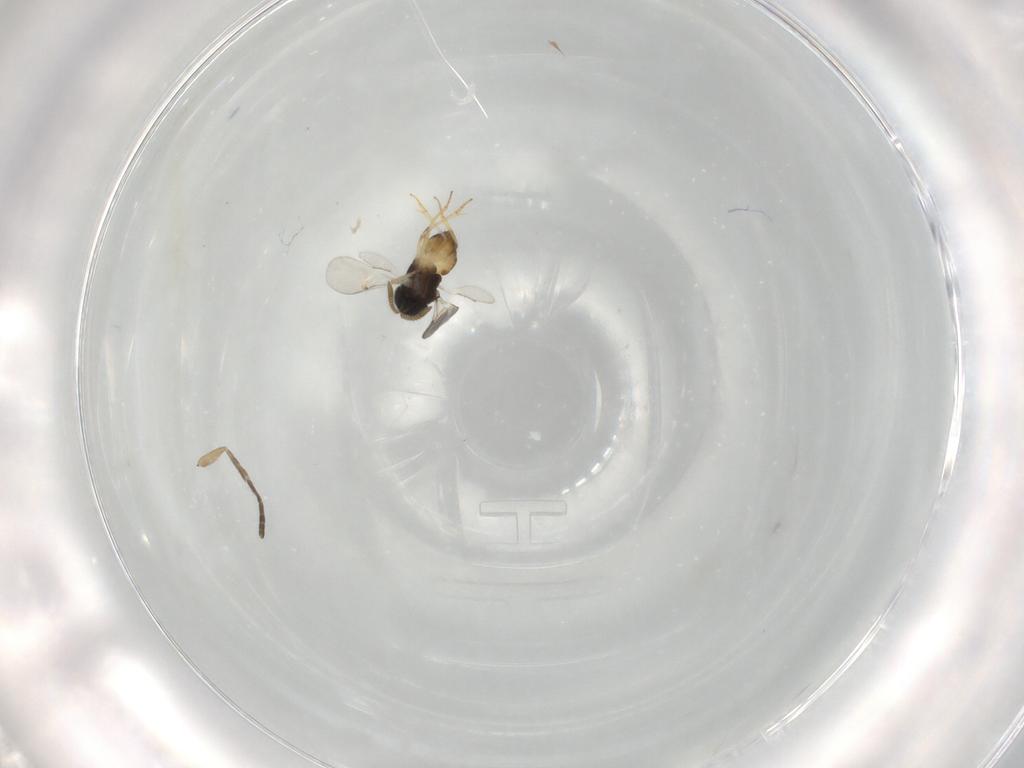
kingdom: Animalia
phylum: Arthropoda
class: Insecta
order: Hymenoptera
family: Encyrtidae
